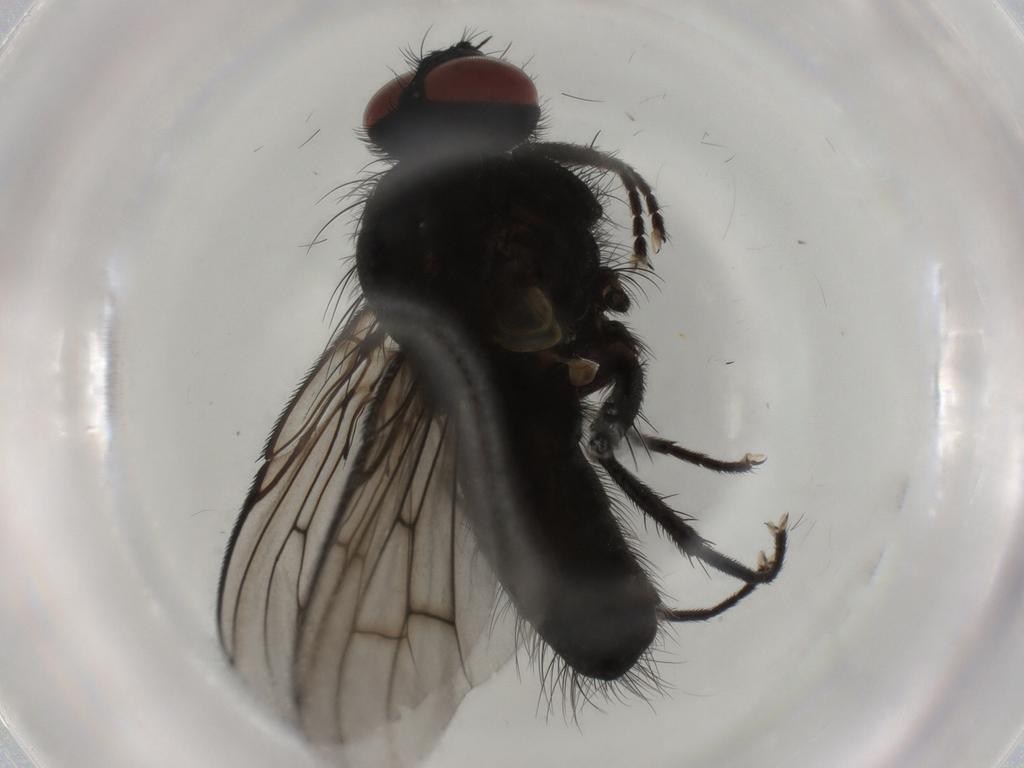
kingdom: Animalia
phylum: Arthropoda
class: Insecta
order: Diptera
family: Muscidae
